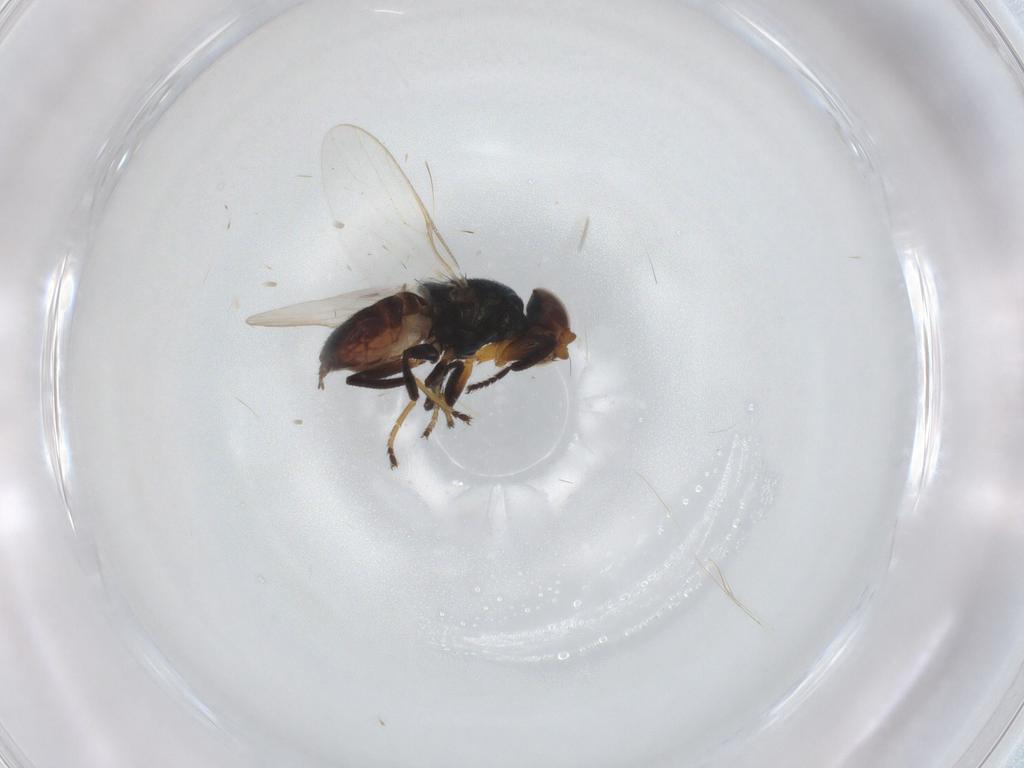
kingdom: Animalia
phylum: Arthropoda
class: Insecta
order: Diptera
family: Chloropidae
